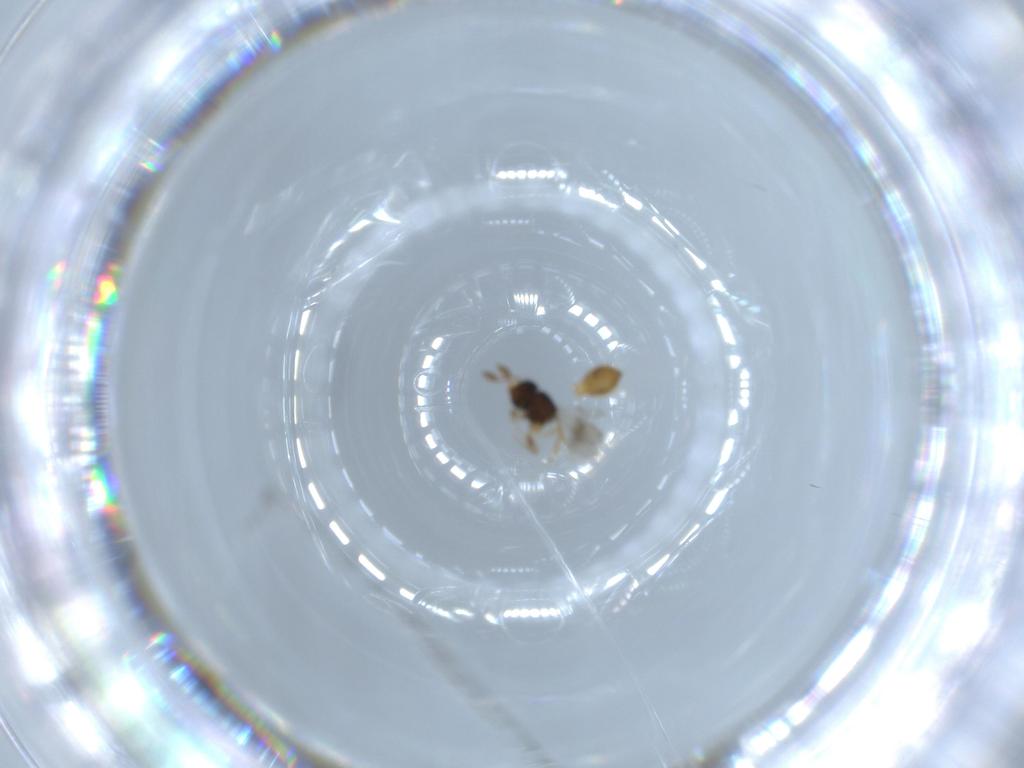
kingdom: Animalia
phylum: Arthropoda
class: Insecta
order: Hymenoptera
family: Scelionidae
